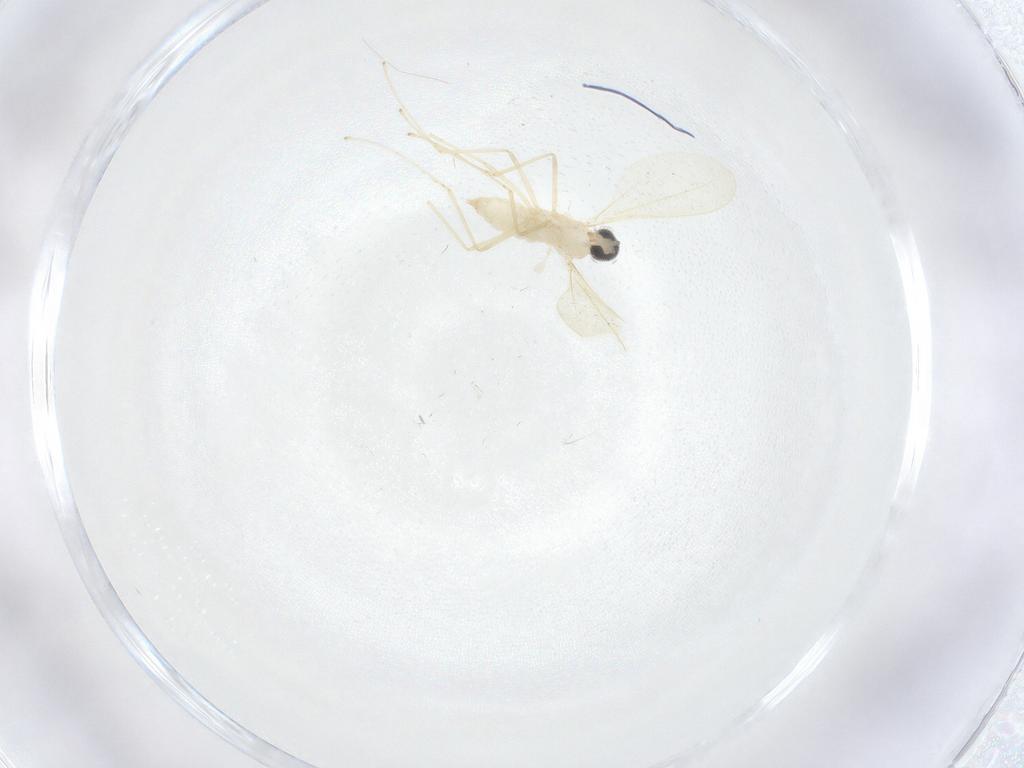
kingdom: Animalia
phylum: Arthropoda
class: Insecta
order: Diptera
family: Cecidomyiidae
